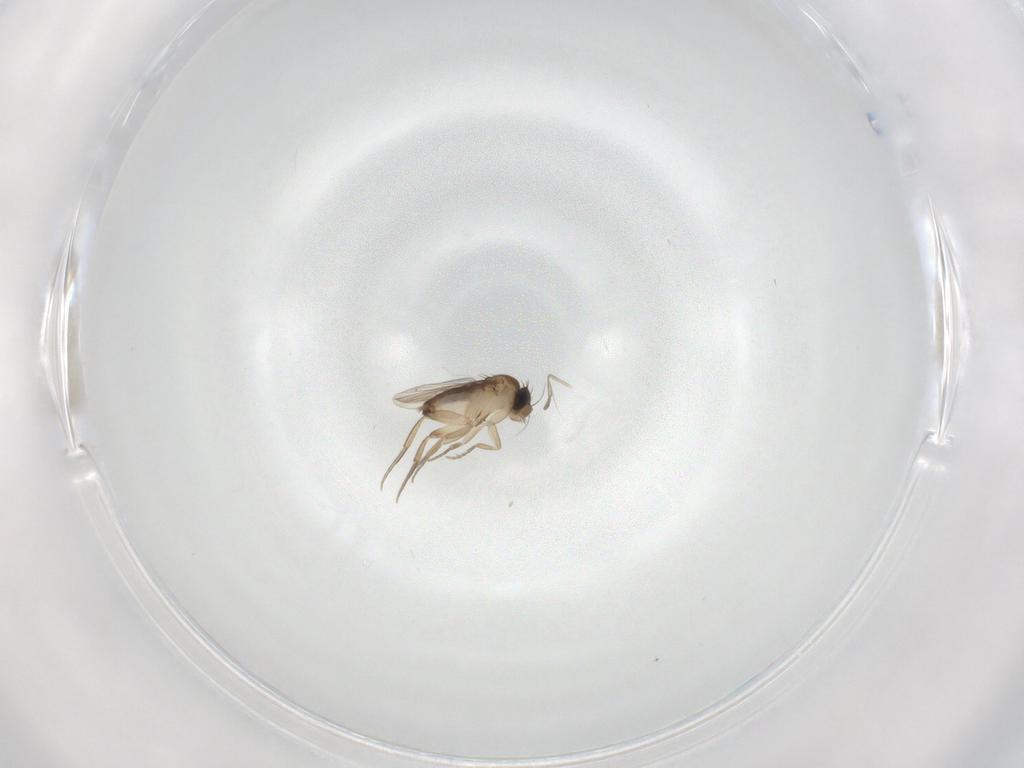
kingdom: Animalia
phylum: Arthropoda
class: Insecta
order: Diptera
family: Phoridae
